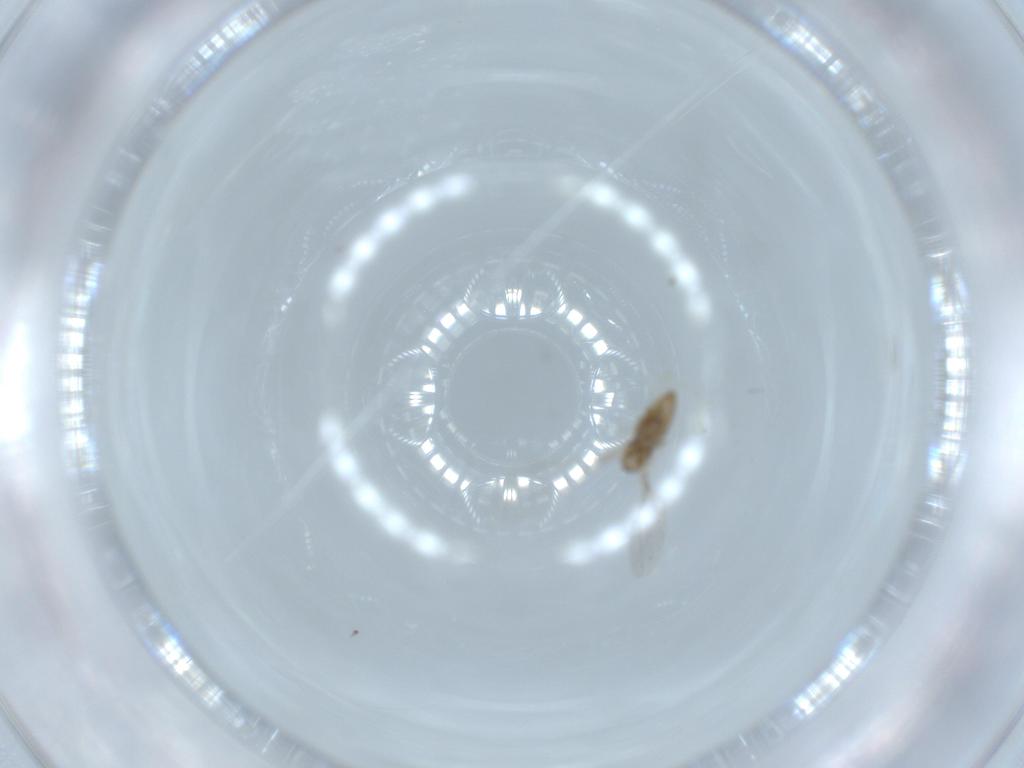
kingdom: Animalia
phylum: Arthropoda
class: Insecta
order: Diptera
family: Cecidomyiidae
